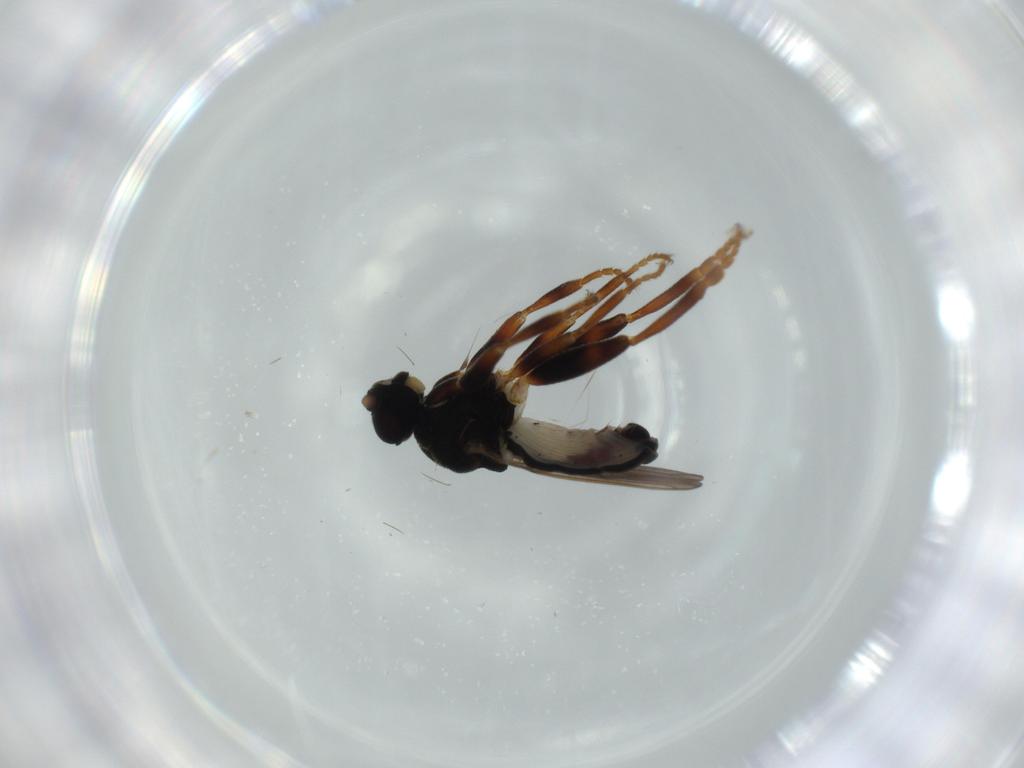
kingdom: Animalia
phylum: Arthropoda
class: Insecta
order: Diptera
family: Sphaeroceridae
